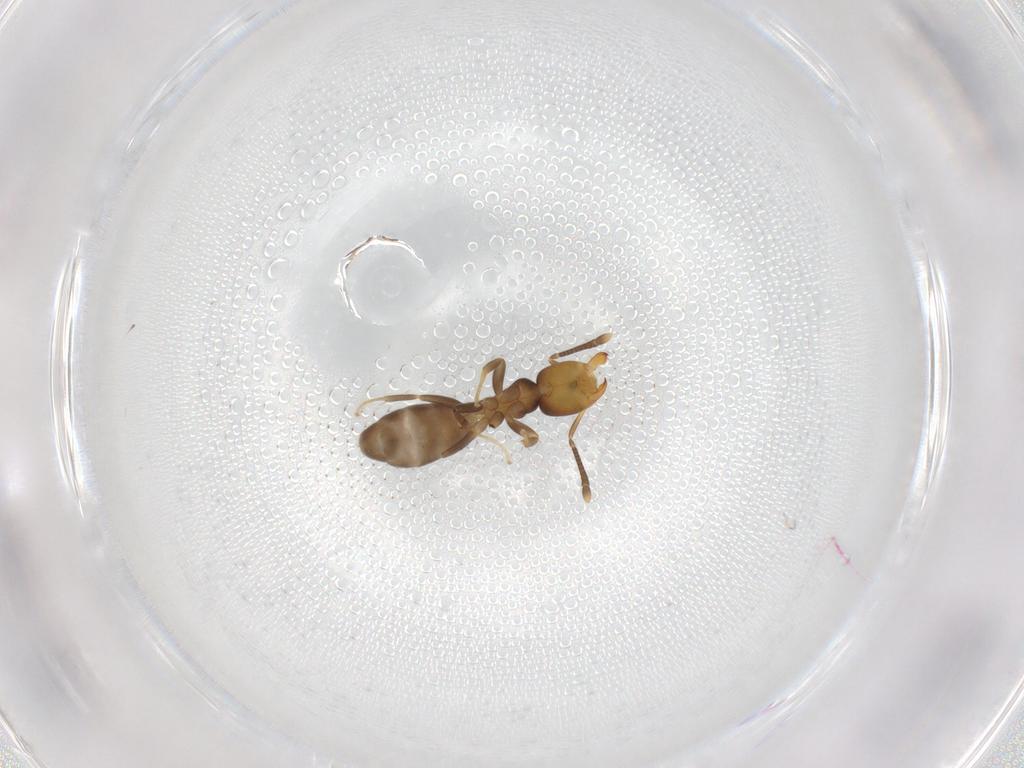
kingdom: Animalia
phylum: Arthropoda
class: Insecta
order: Hymenoptera
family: Formicidae
